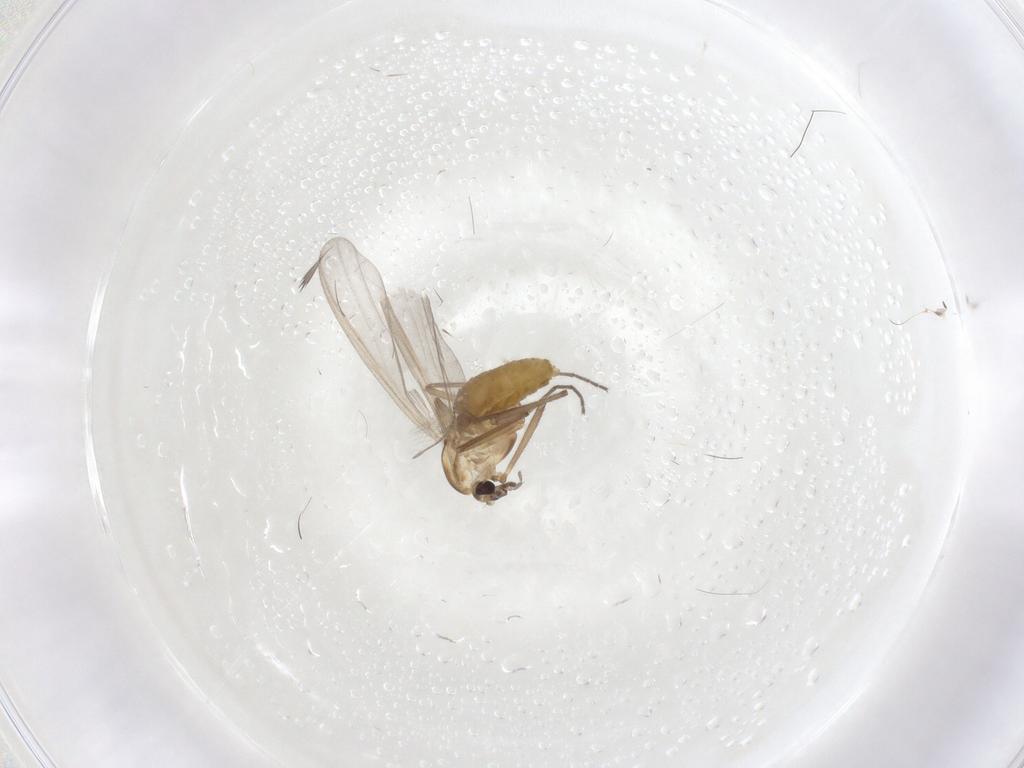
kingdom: Animalia
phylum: Arthropoda
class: Insecta
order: Diptera
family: Chironomidae
